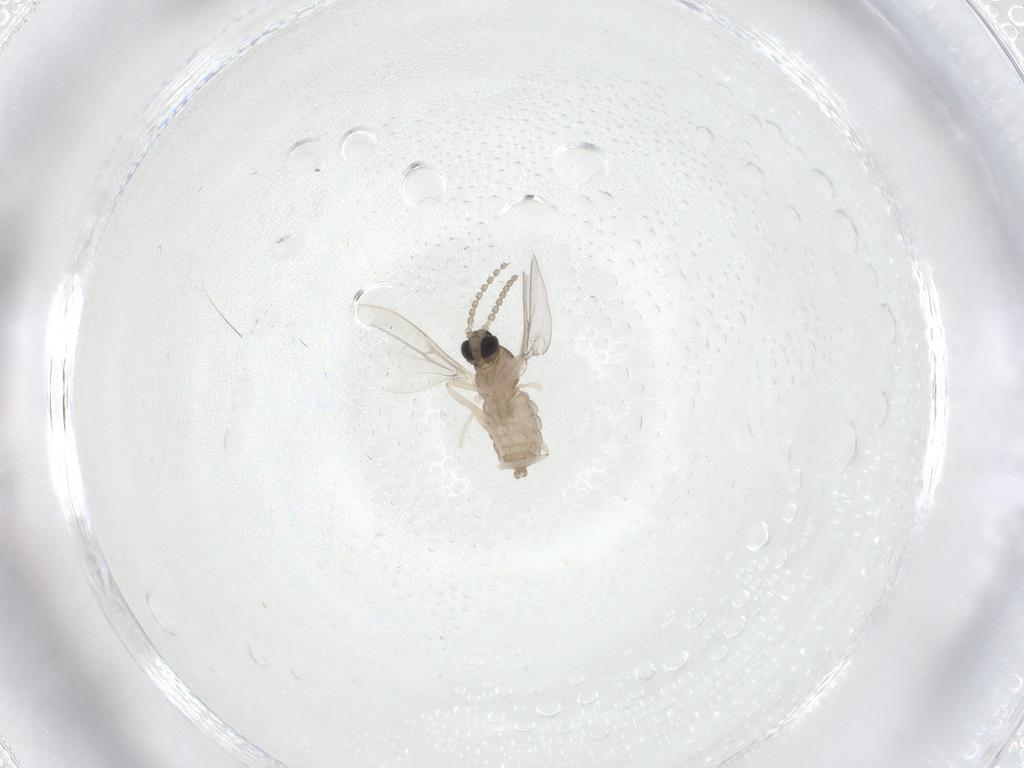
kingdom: Animalia
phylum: Arthropoda
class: Insecta
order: Diptera
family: Cecidomyiidae
